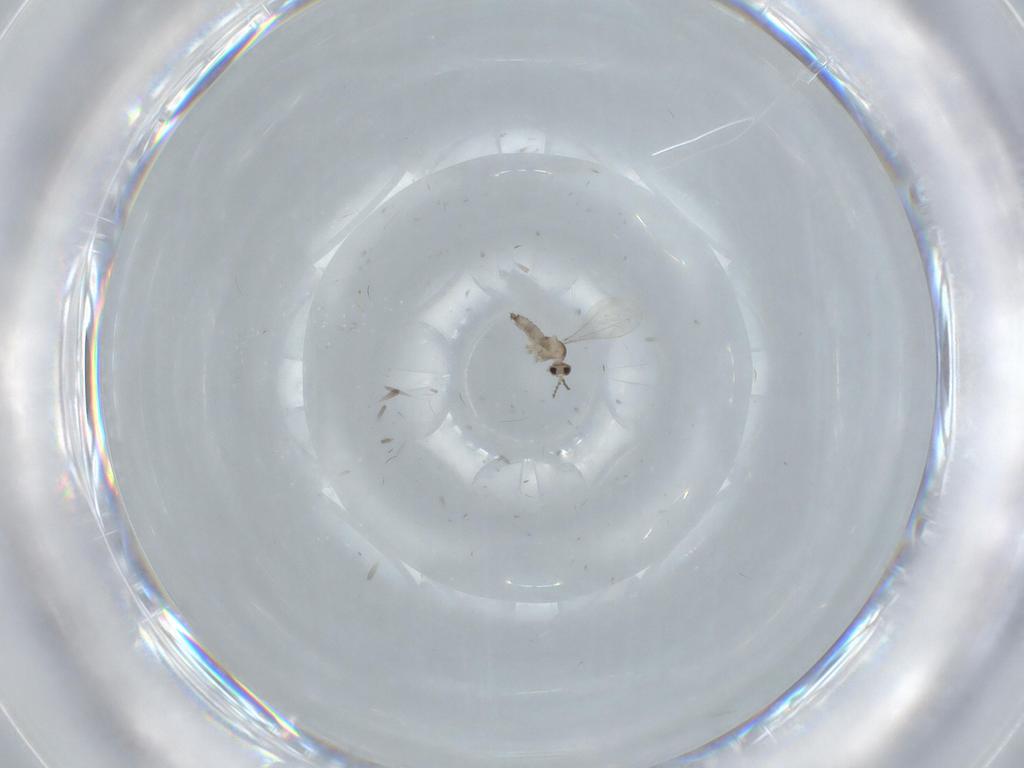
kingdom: Animalia
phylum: Arthropoda
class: Insecta
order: Diptera
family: Cecidomyiidae
